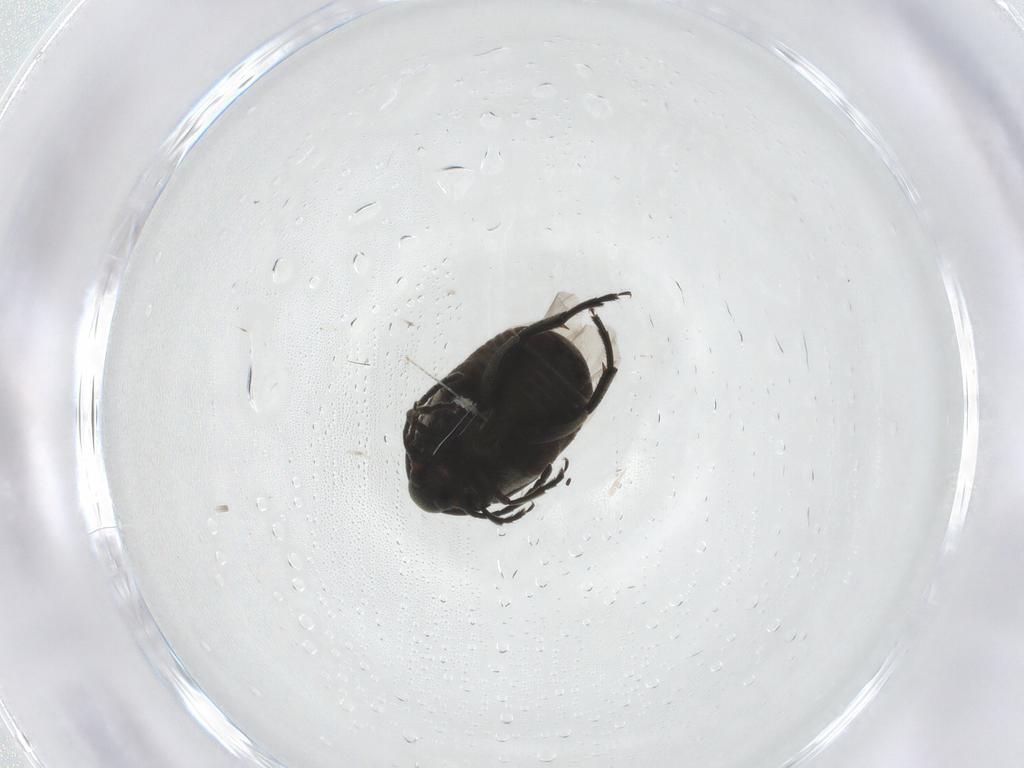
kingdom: Animalia
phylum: Arthropoda
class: Insecta
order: Coleoptera
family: Chrysomelidae
